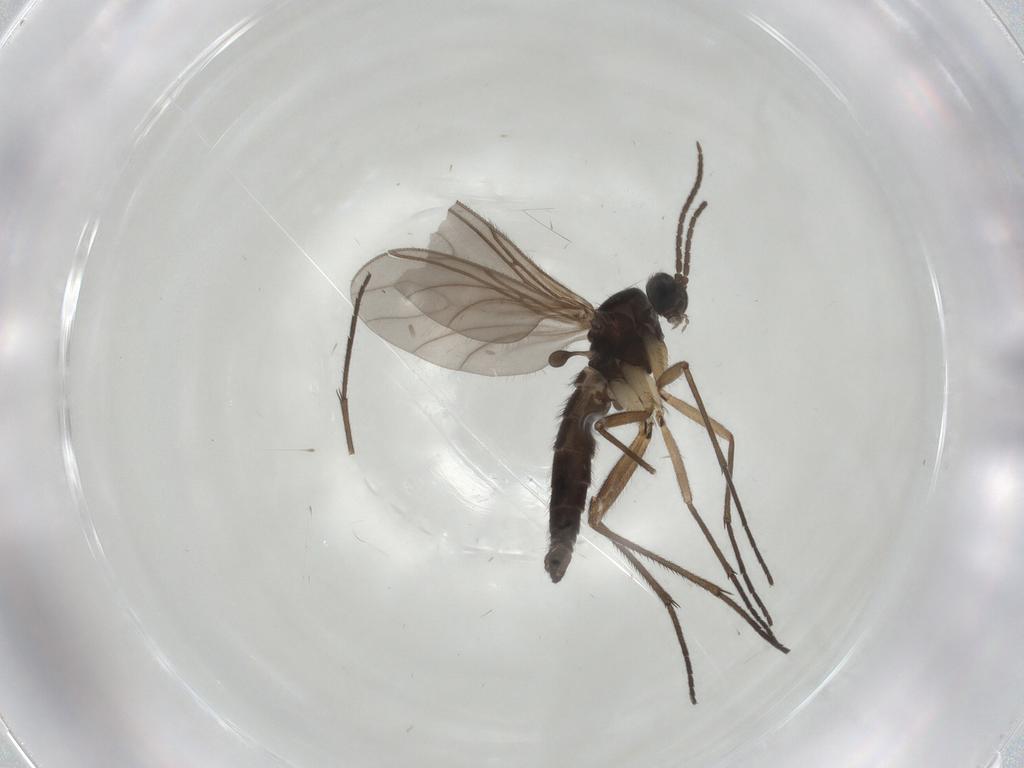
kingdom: Animalia
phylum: Arthropoda
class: Insecta
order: Diptera
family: Sciaridae
